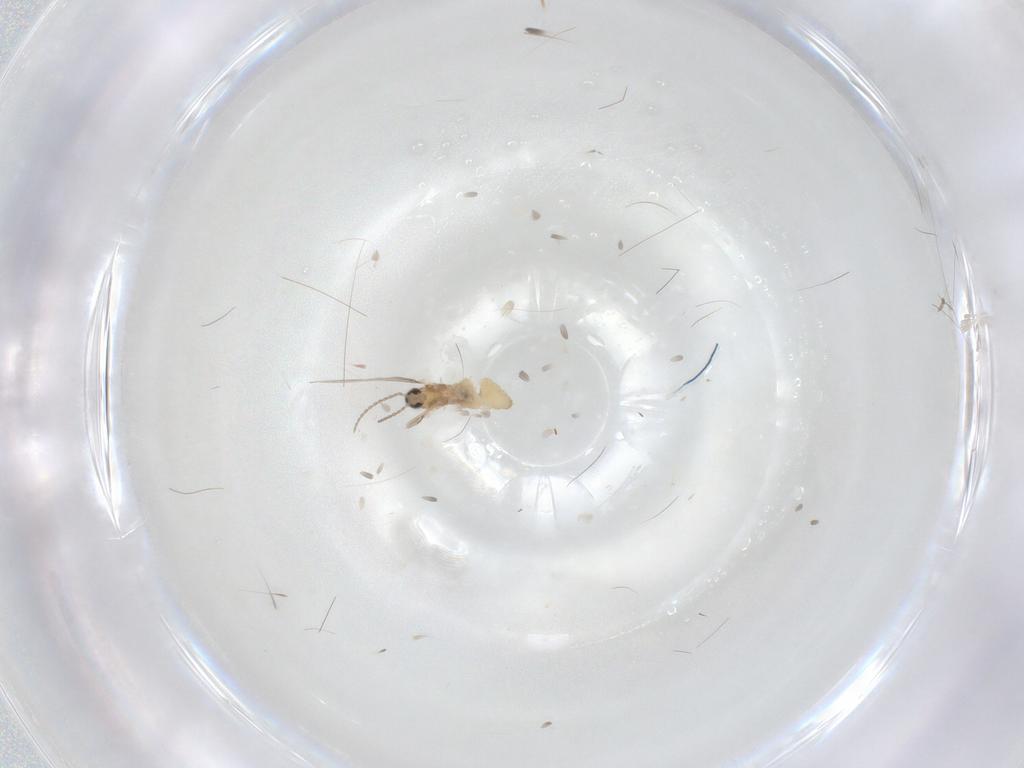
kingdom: Animalia
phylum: Arthropoda
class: Insecta
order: Diptera
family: Cecidomyiidae
